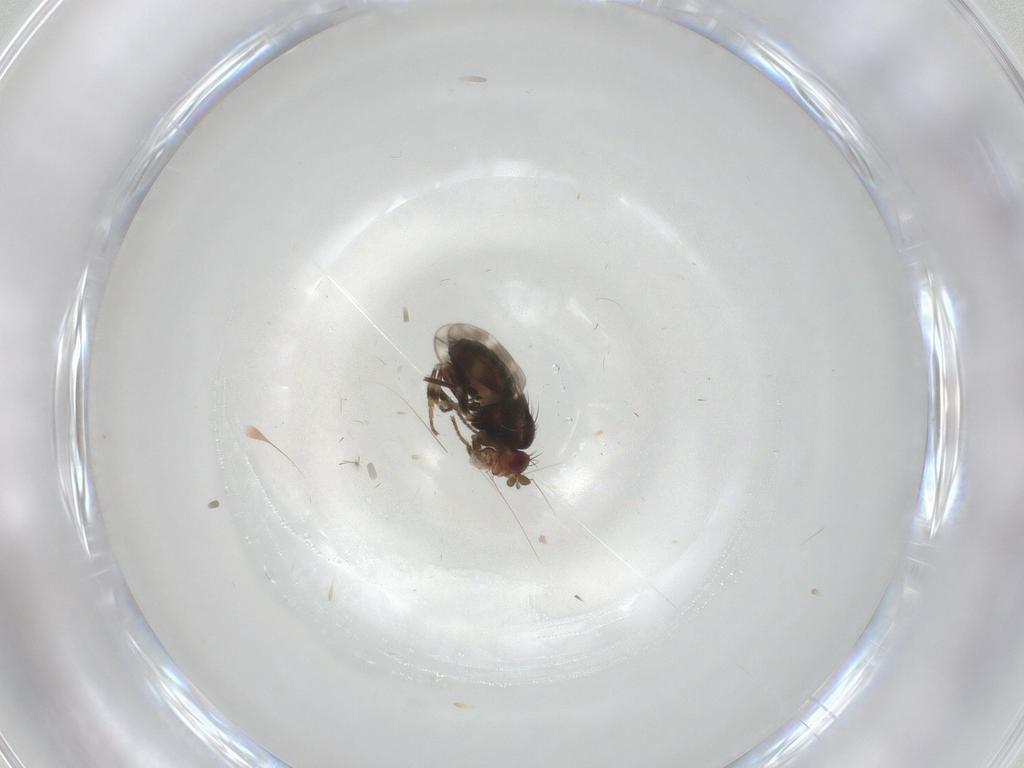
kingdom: Animalia
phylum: Arthropoda
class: Insecta
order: Diptera
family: Sphaeroceridae
